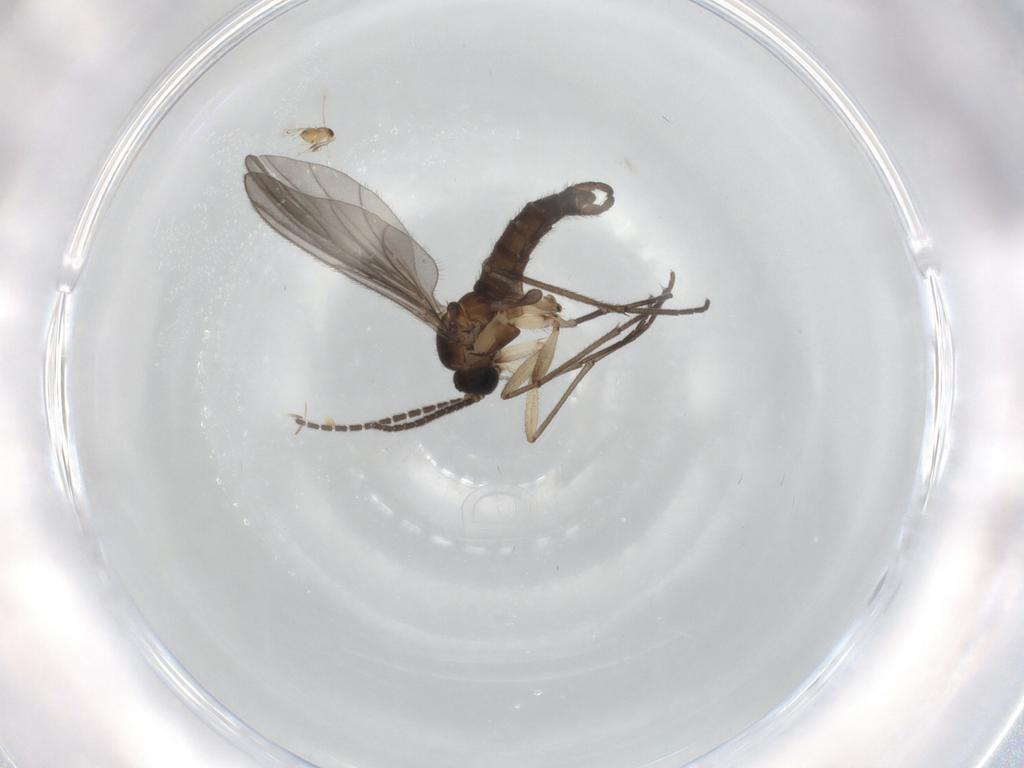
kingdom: Animalia
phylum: Arthropoda
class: Insecta
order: Diptera
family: Sciaridae
